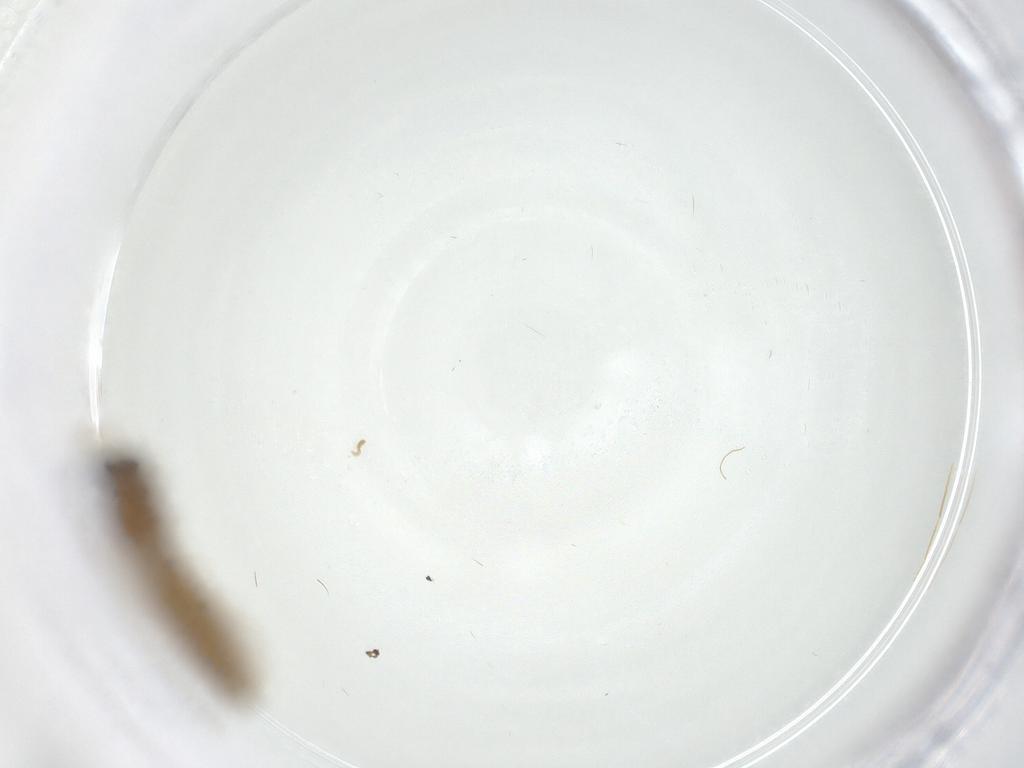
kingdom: Animalia
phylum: Arthropoda
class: Insecta
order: Diptera
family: Chironomidae
